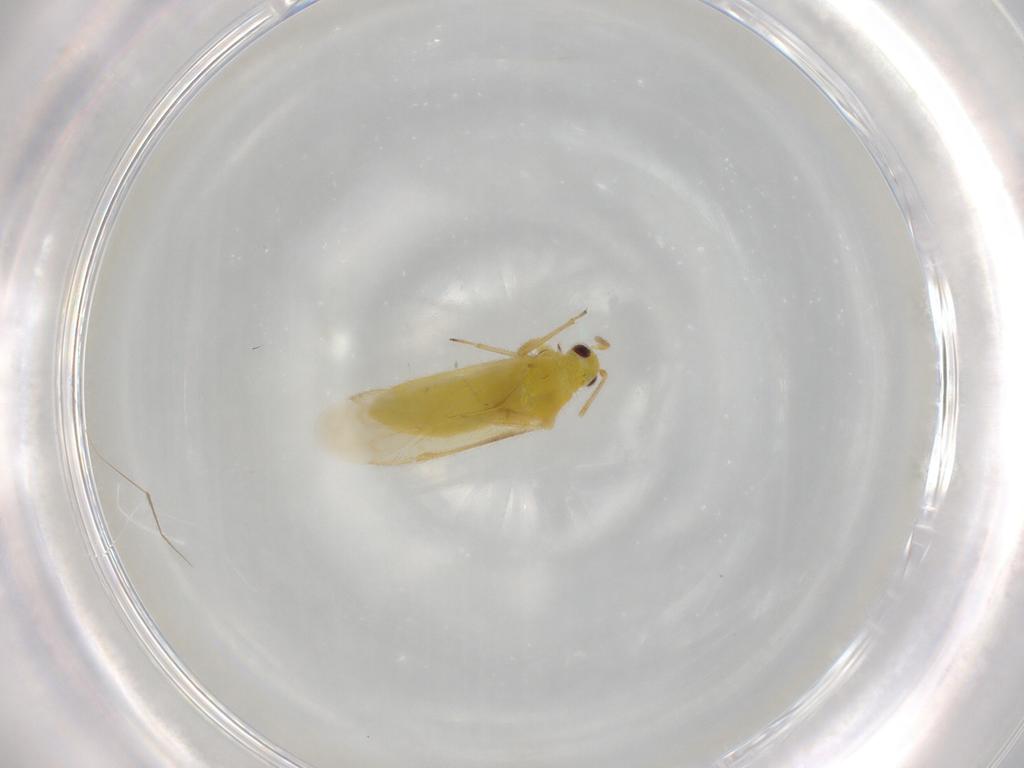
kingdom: Animalia
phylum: Arthropoda
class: Insecta
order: Hemiptera
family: Miridae
